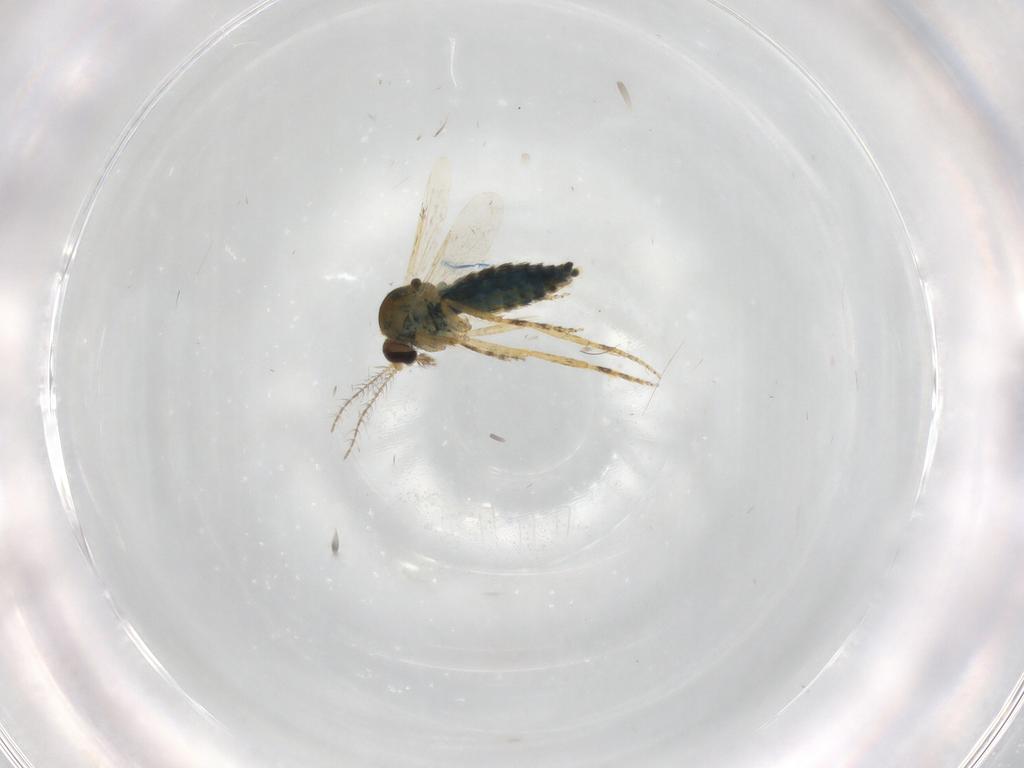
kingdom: Animalia
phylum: Arthropoda
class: Insecta
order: Diptera
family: Ceratopogonidae
